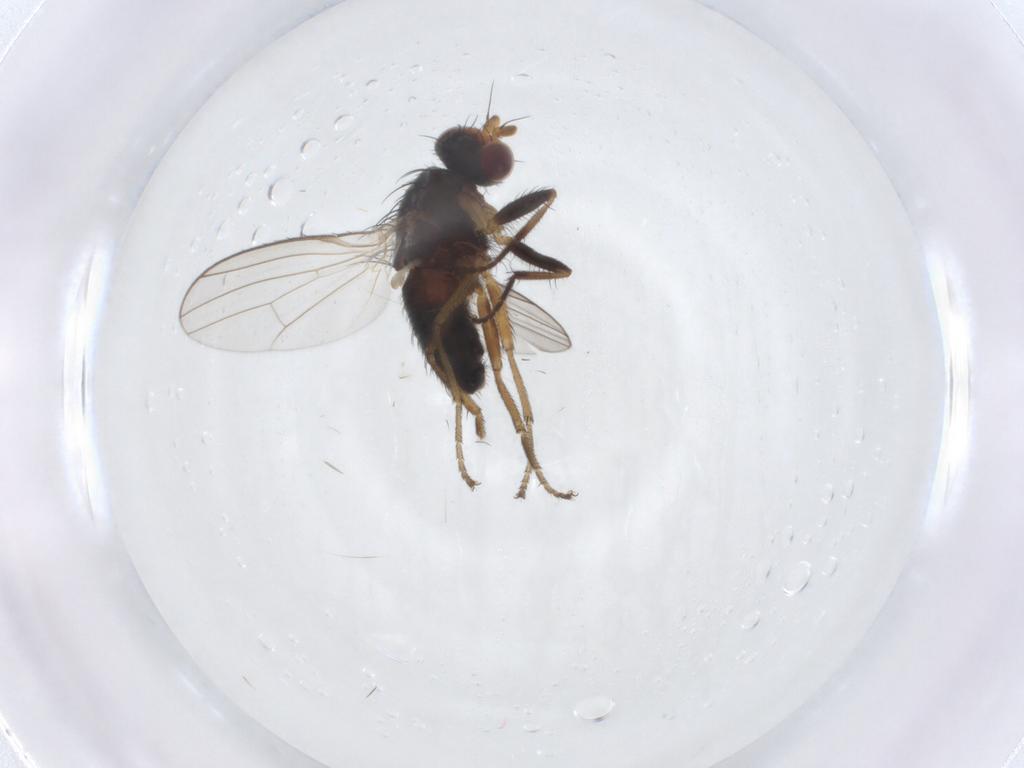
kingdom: Animalia
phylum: Arthropoda
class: Insecta
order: Diptera
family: Heleomyzidae
